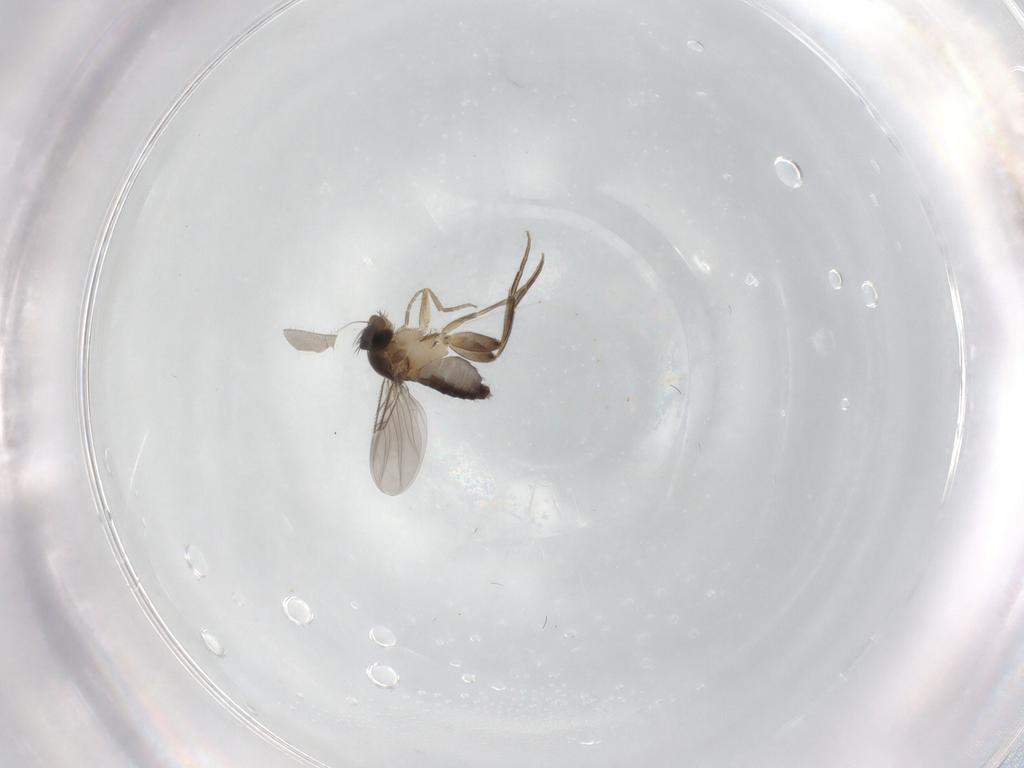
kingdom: Animalia
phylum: Arthropoda
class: Insecta
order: Diptera
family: Phoridae
